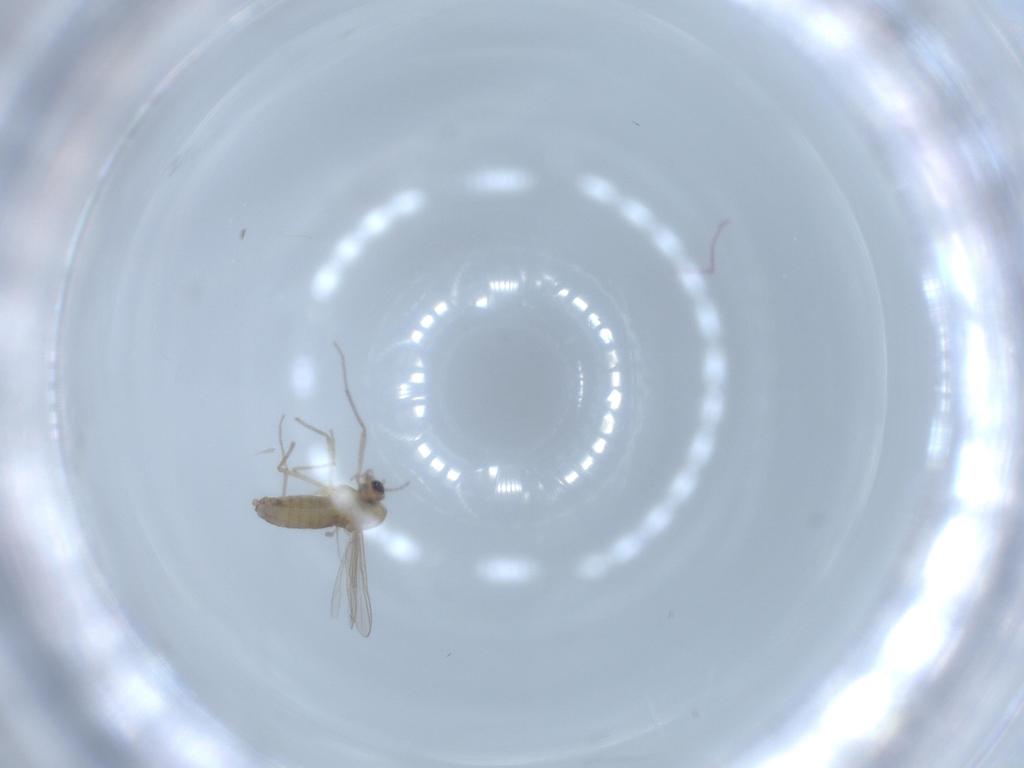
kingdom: Animalia
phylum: Arthropoda
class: Insecta
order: Diptera
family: Chironomidae
